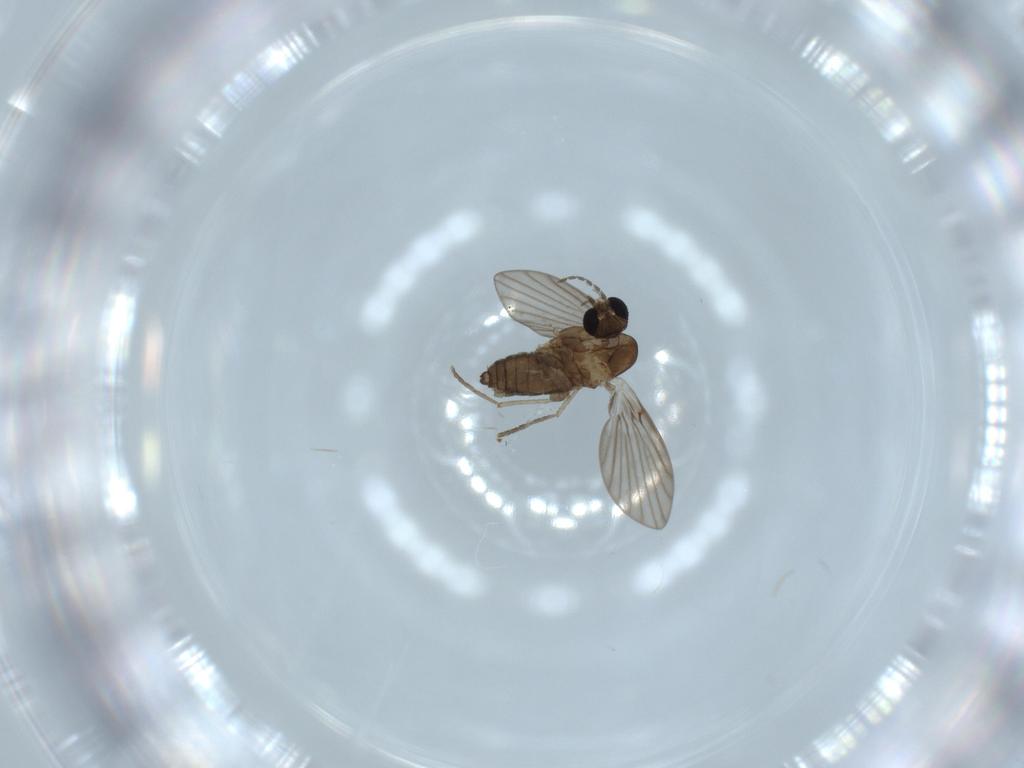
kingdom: Animalia
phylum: Arthropoda
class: Insecta
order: Diptera
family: Psychodidae
